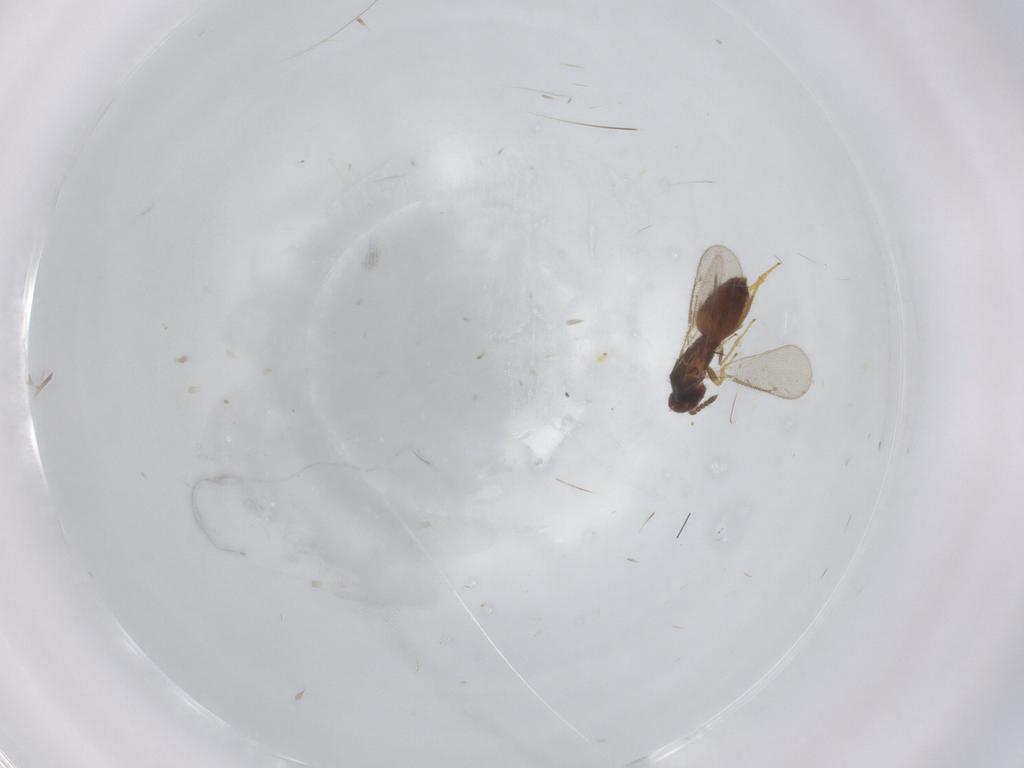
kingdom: Animalia
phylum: Arthropoda
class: Insecta
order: Hymenoptera
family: Eulophidae
